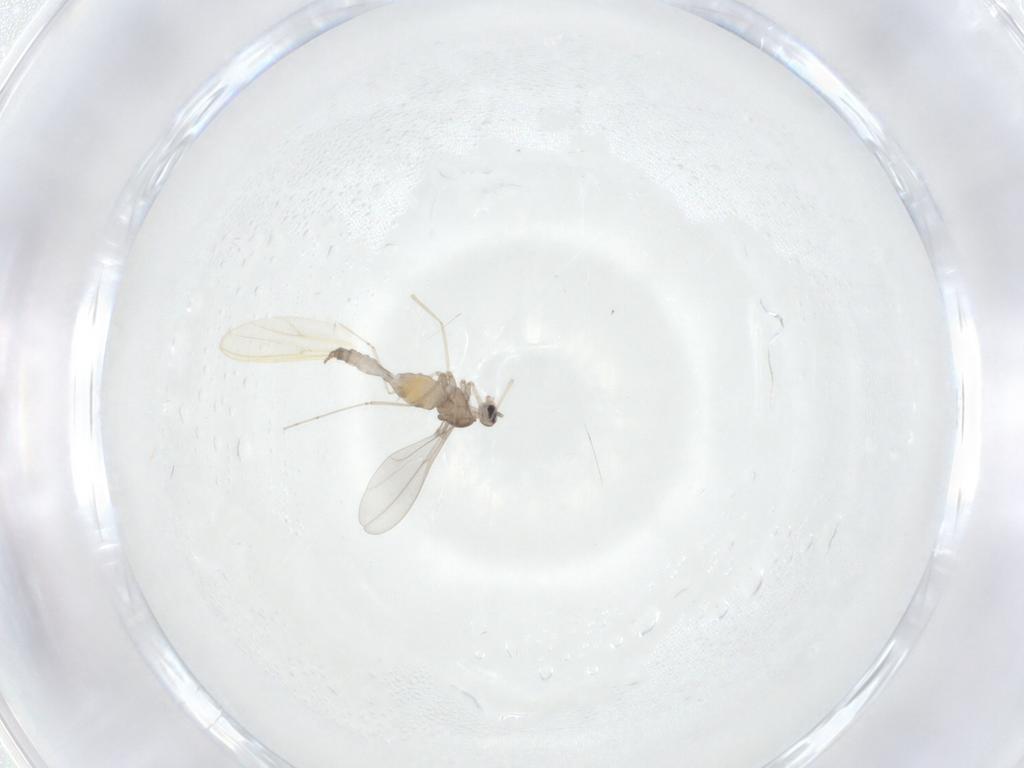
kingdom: Animalia
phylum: Arthropoda
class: Insecta
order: Diptera
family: Cecidomyiidae
